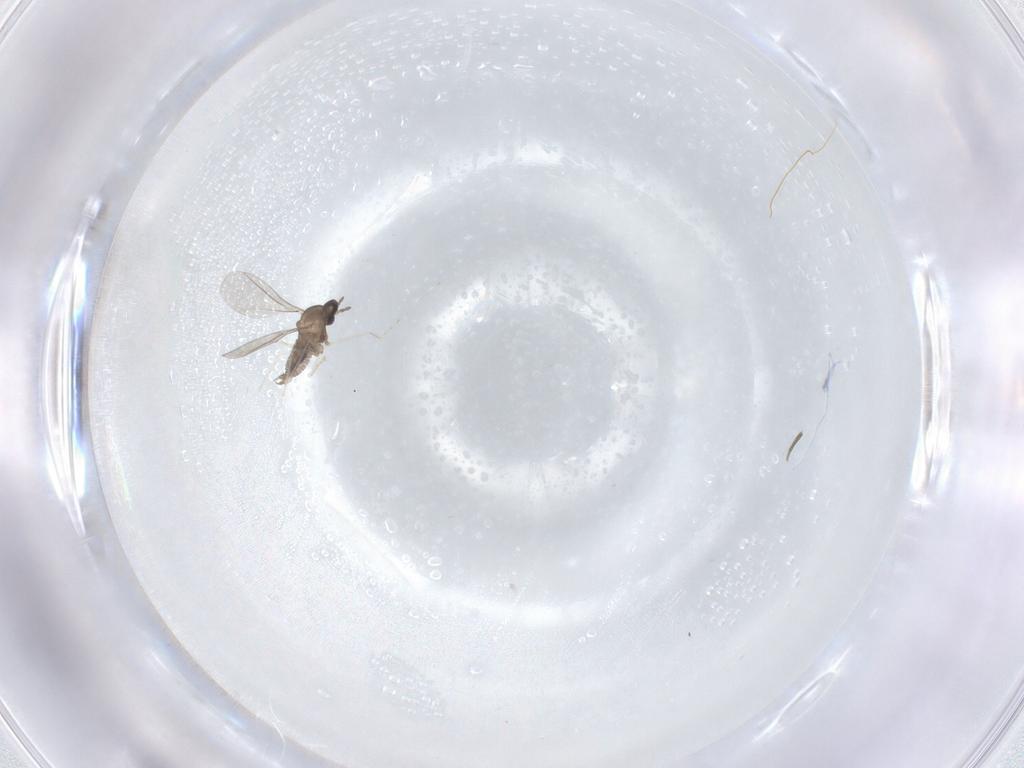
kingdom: Animalia
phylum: Arthropoda
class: Insecta
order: Diptera
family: Cecidomyiidae
